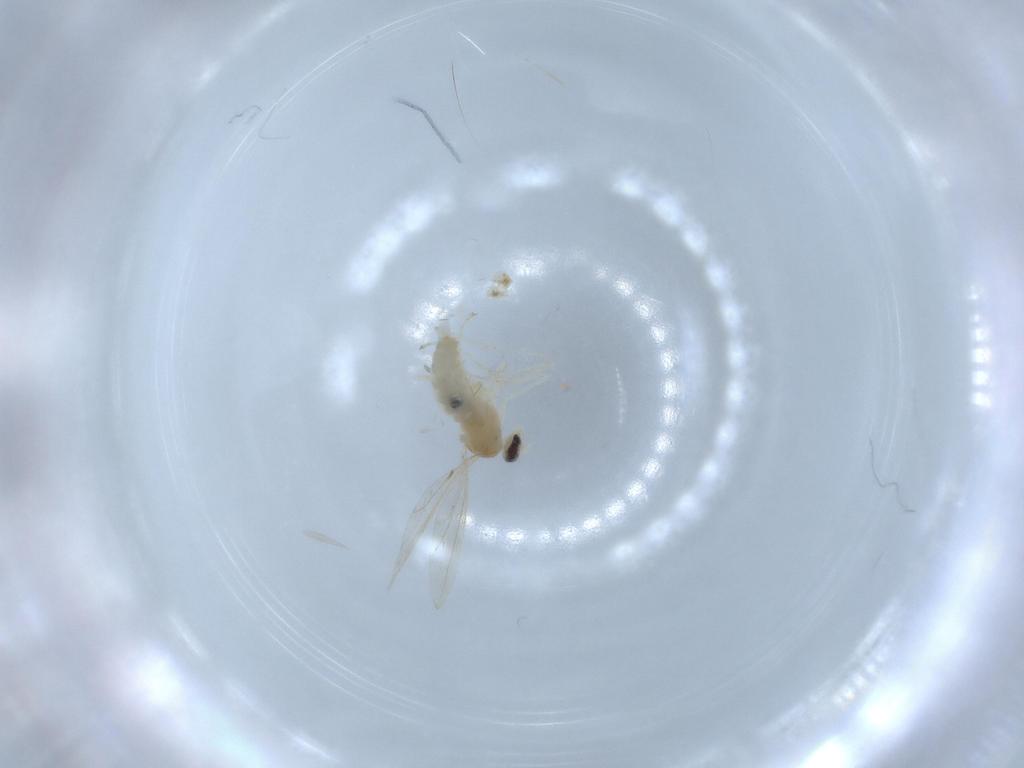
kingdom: Animalia
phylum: Arthropoda
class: Insecta
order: Diptera
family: Cecidomyiidae
